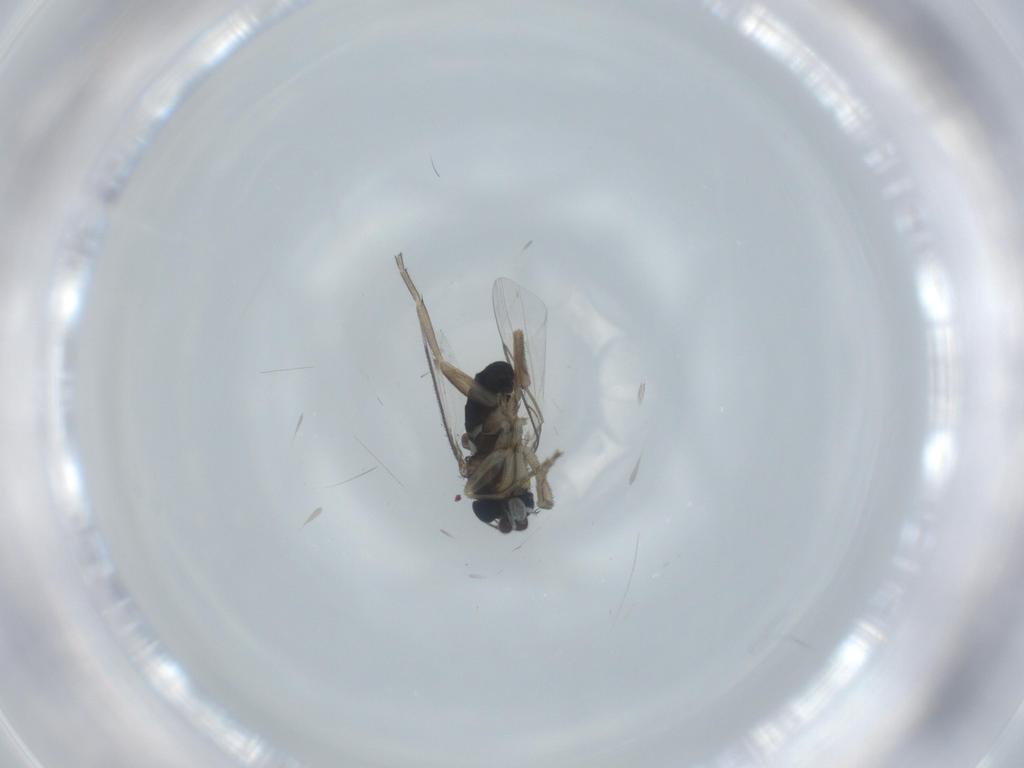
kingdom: Animalia
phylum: Arthropoda
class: Insecta
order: Diptera
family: Phoridae
